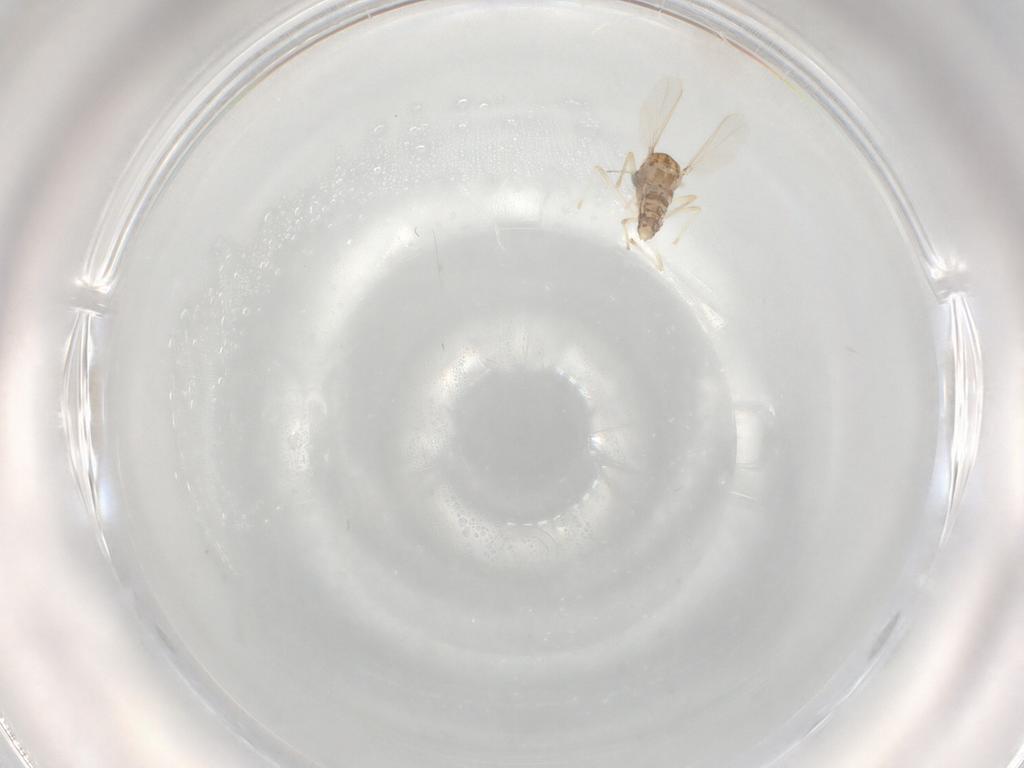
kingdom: Animalia
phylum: Arthropoda
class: Insecta
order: Diptera
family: Chironomidae
